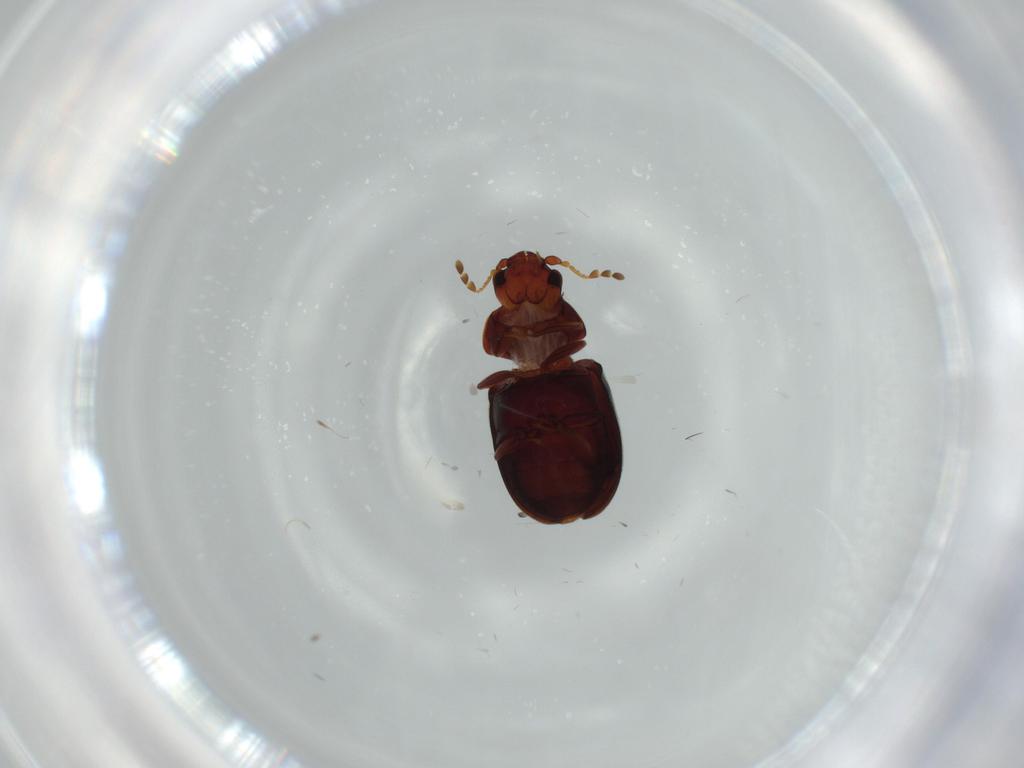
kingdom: Animalia
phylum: Arthropoda
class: Insecta
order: Coleoptera
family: Ptinidae
